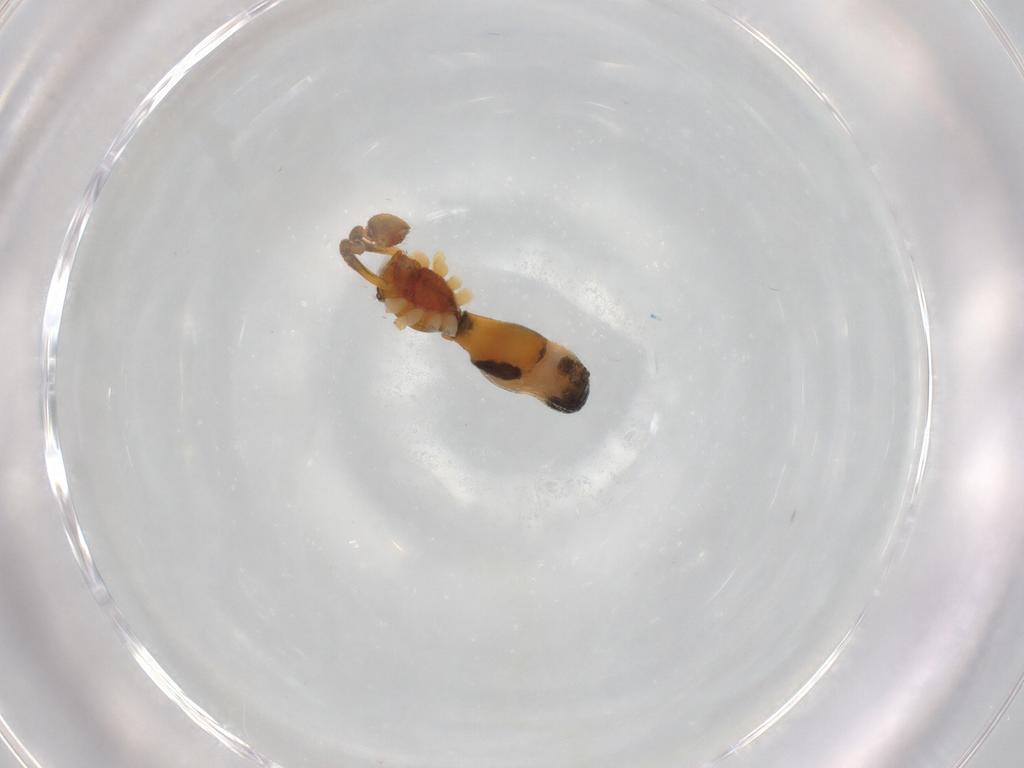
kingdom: Animalia
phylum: Arthropoda
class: Arachnida
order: Araneae
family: Theridiidae
